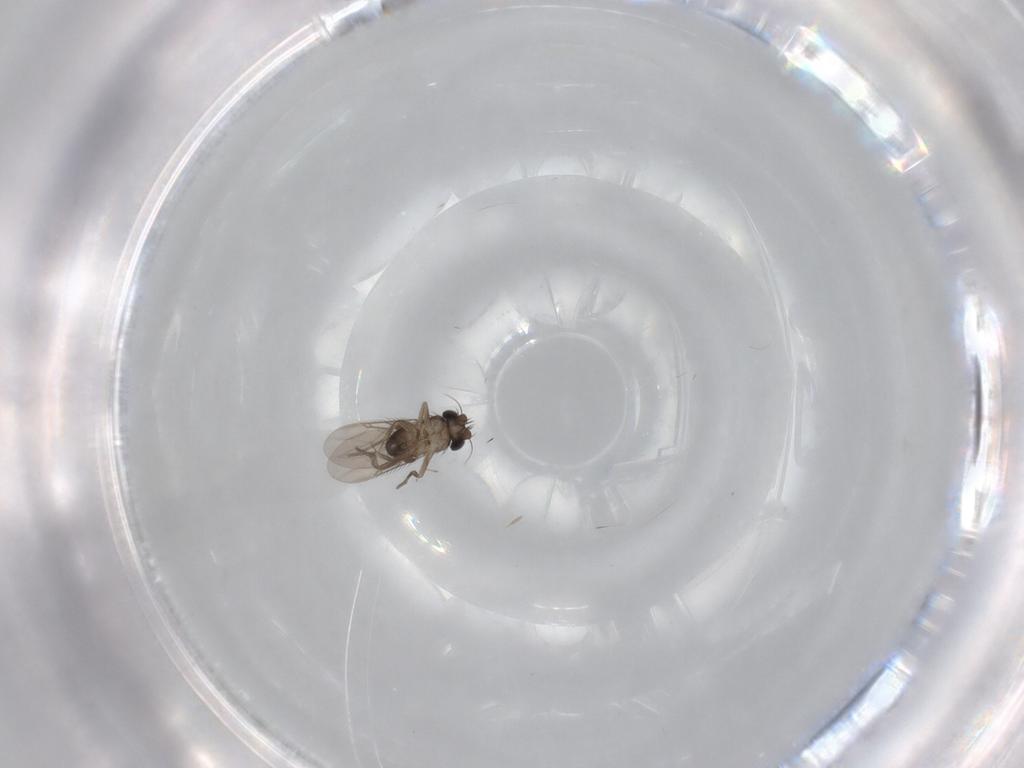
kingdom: Animalia
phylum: Arthropoda
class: Insecta
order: Diptera
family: Phoridae
